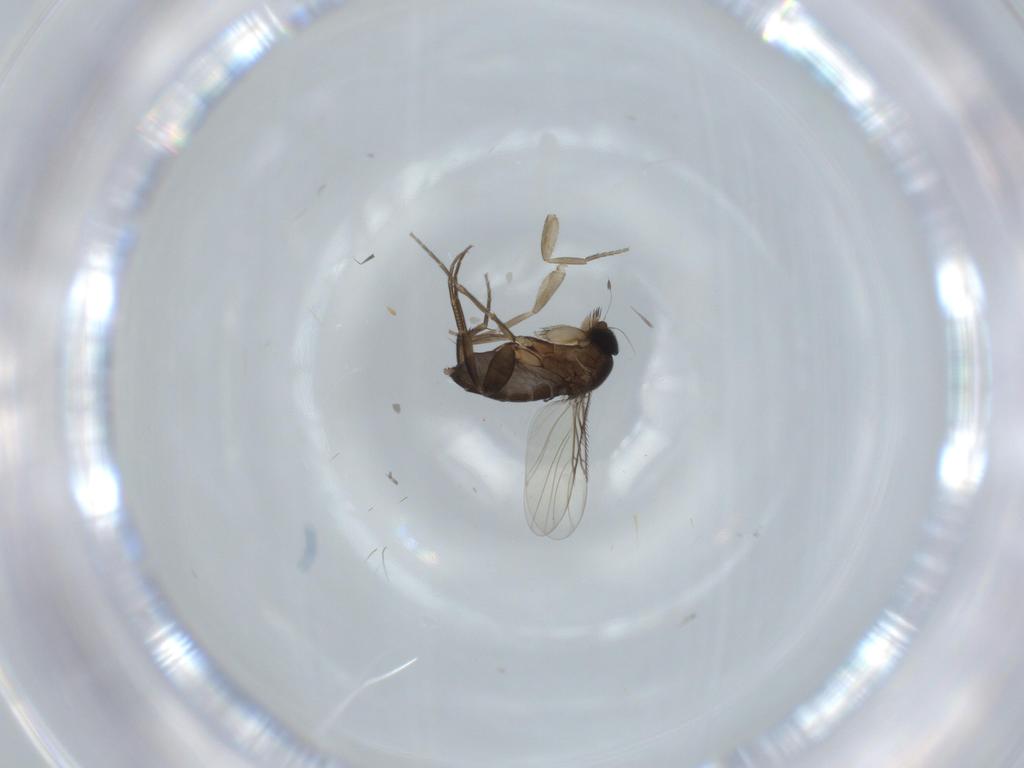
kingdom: Animalia
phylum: Arthropoda
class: Insecta
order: Diptera
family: Phoridae
